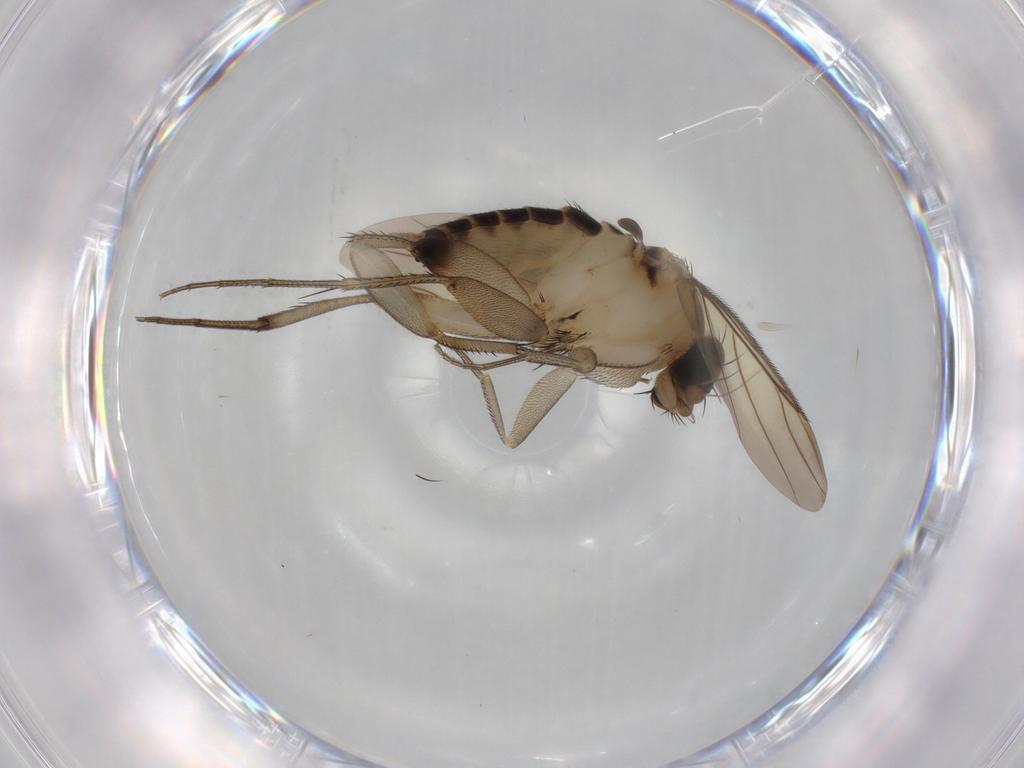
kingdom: Animalia
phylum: Arthropoda
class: Insecta
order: Diptera
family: Phoridae
